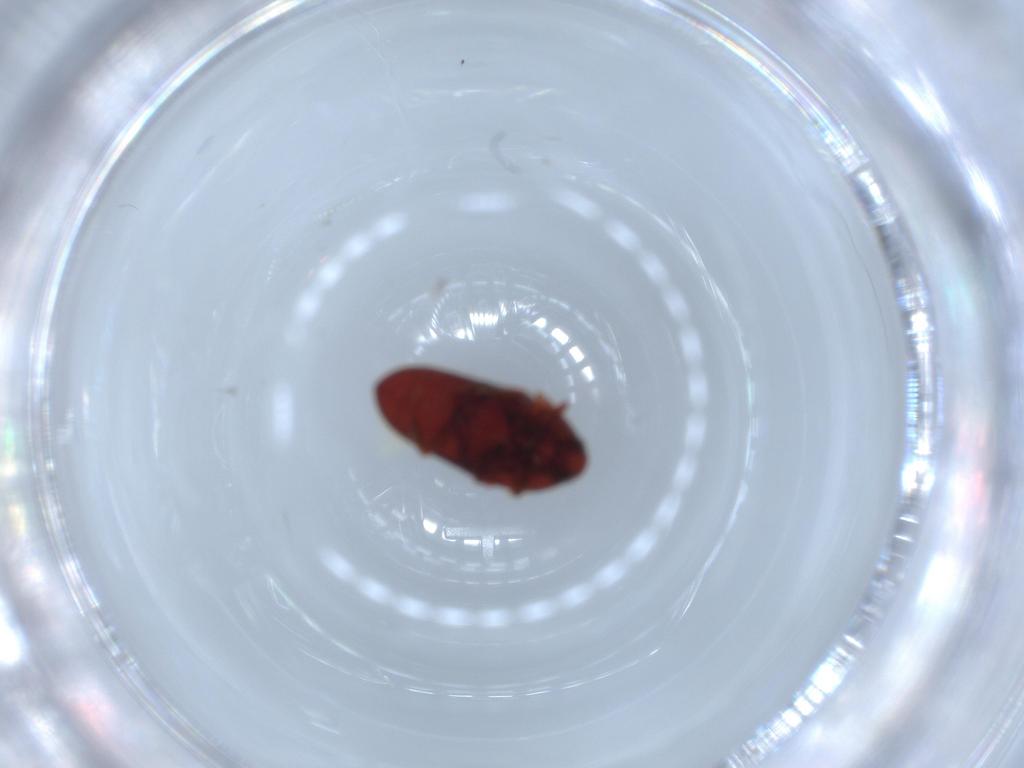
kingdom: Animalia
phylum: Arthropoda
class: Insecta
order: Coleoptera
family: Throscidae
